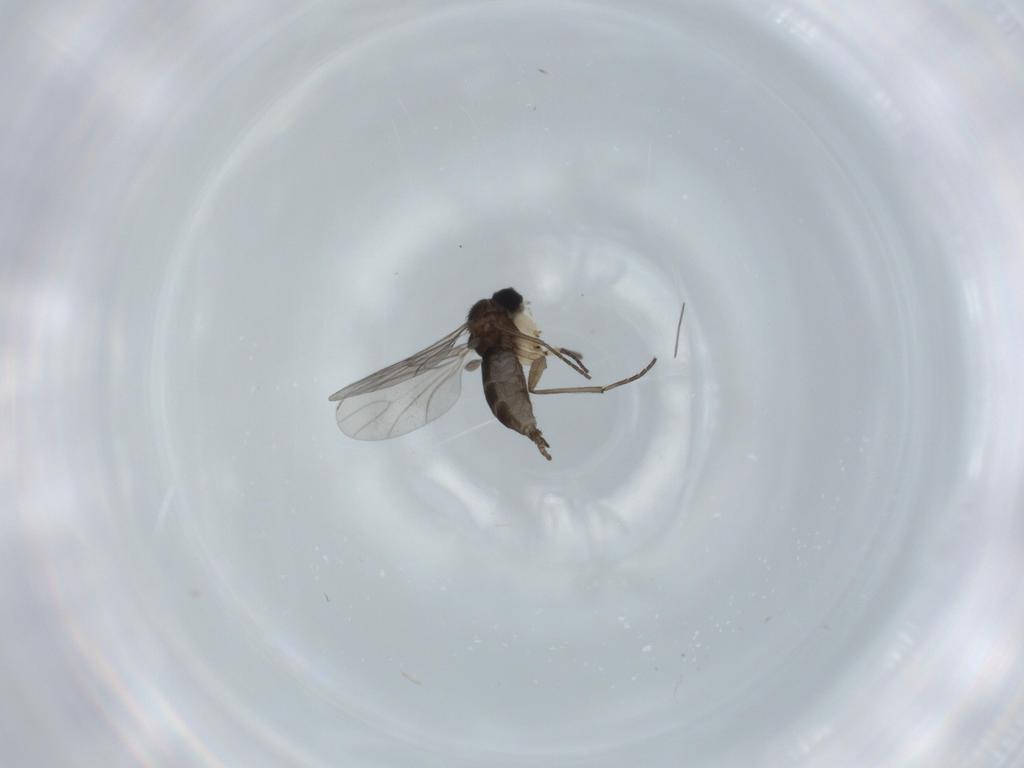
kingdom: Animalia
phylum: Arthropoda
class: Insecta
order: Diptera
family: Sciaridae
